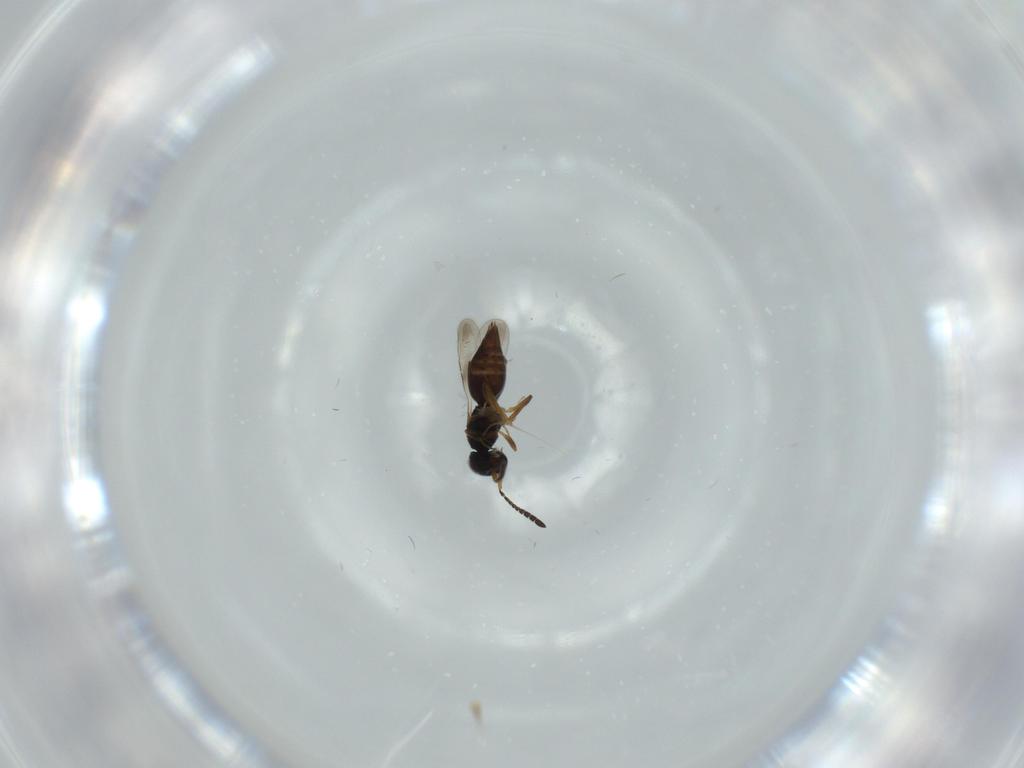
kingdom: Animalia
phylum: Arthropoda
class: Insecta
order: Hymenoptera
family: Ceraphronidae
